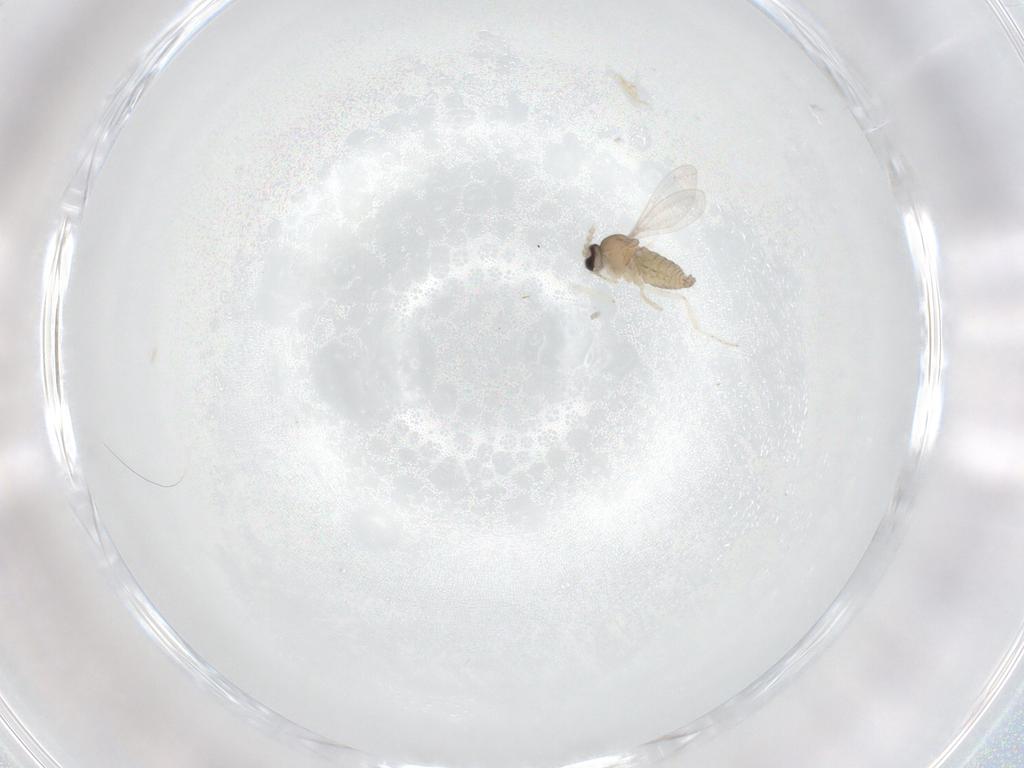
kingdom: Animalia
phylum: Arthropoda
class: Insecta
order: Diptera
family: Cecidomyiidae
